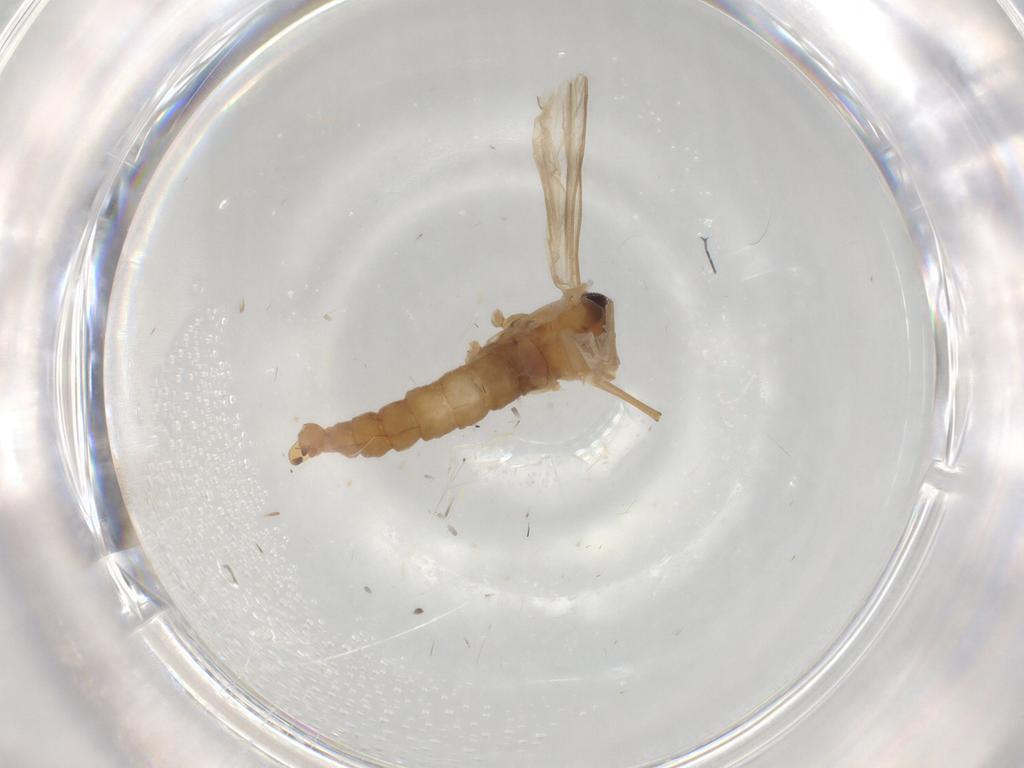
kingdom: Animalia
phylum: Arthropoda
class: Insecta
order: Diptera
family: Cecidomyiidae
